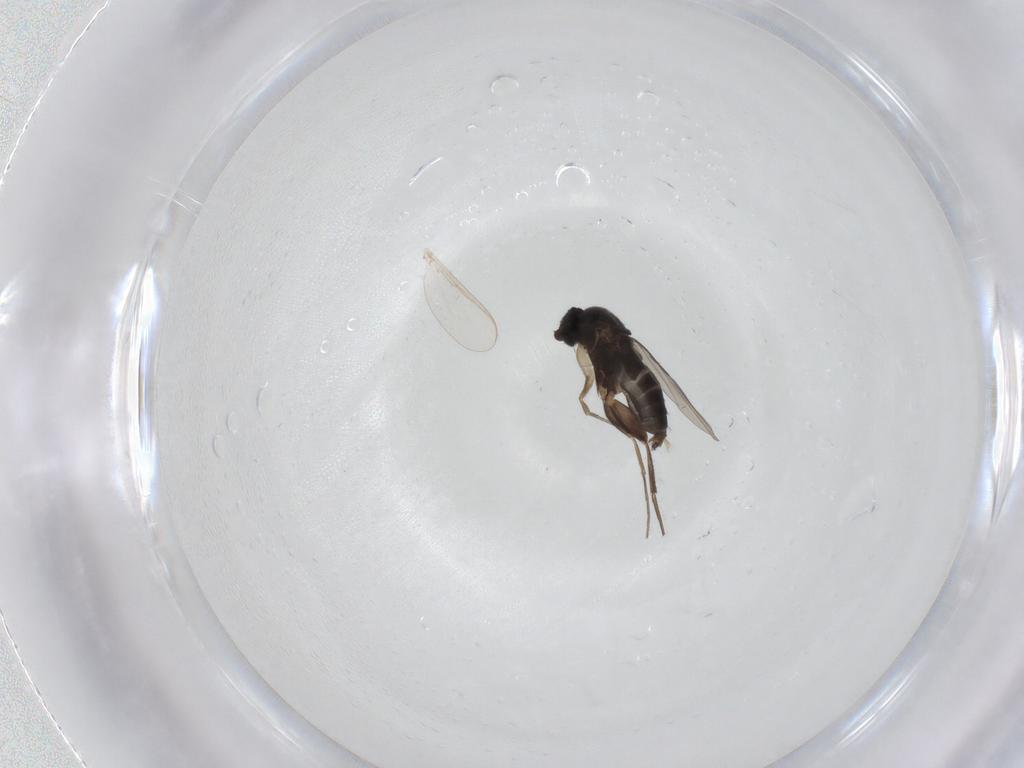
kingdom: Animalia
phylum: Arthropoda
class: Insecta
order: Diptera
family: Phoridae
